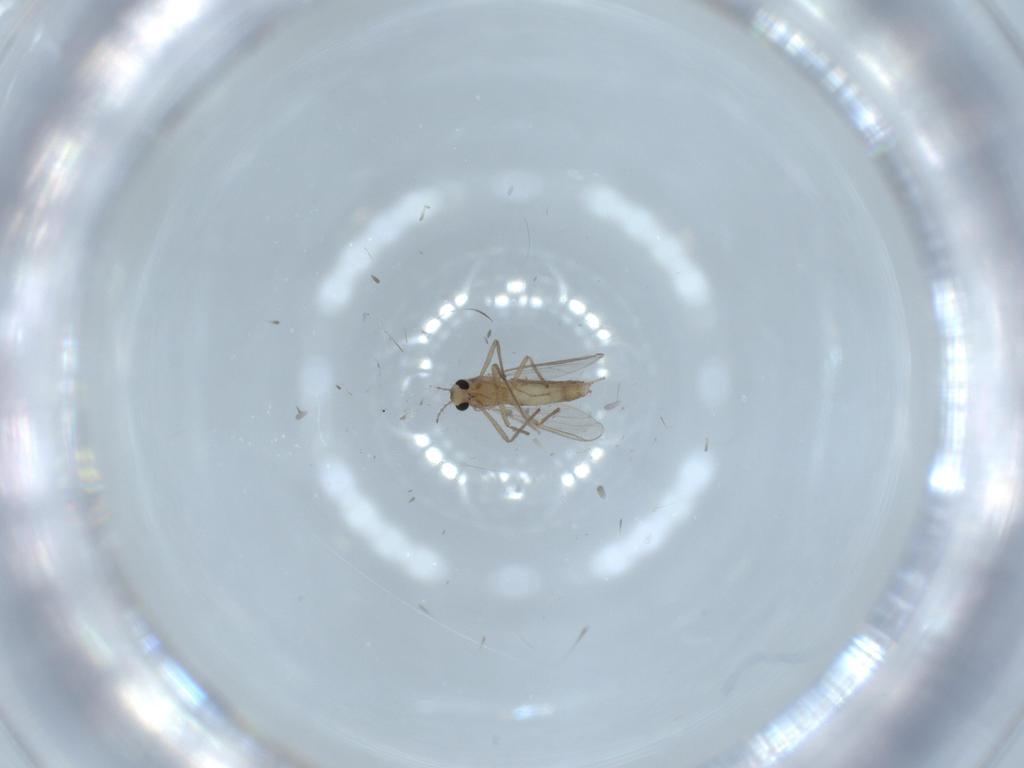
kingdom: Animalia
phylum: Arthropoda
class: Insecta
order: Diptera
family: Chironomidae
